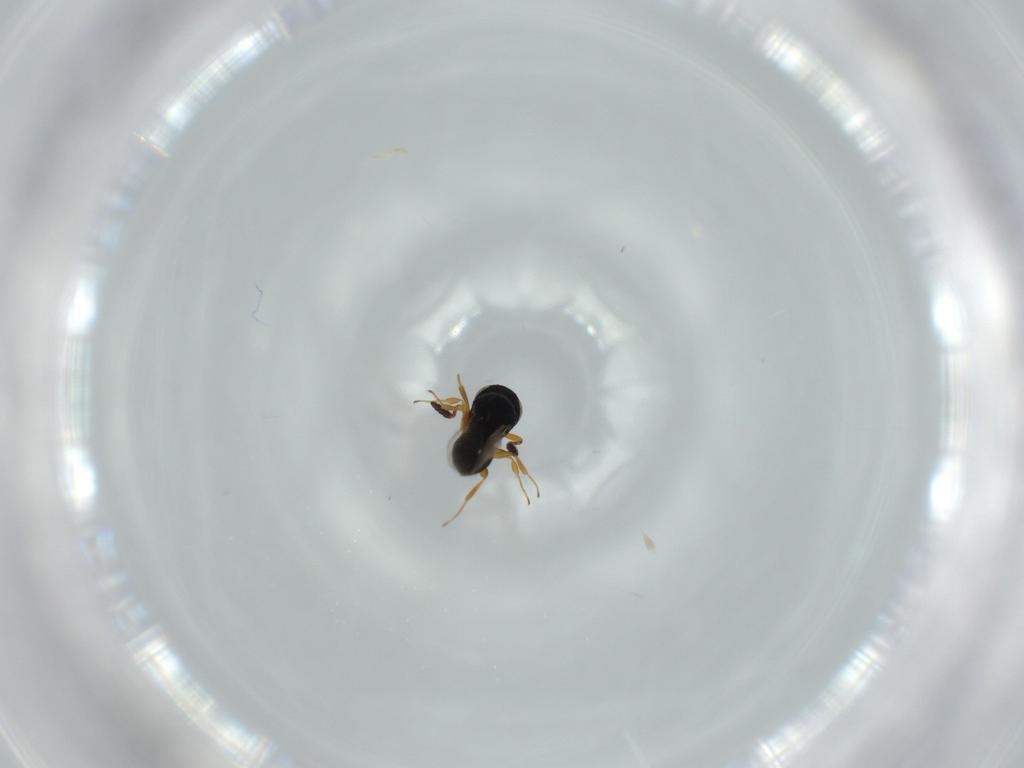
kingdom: Animalia
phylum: Arthropoda
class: Insecta
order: Hymenoptera
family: Scelionidae
